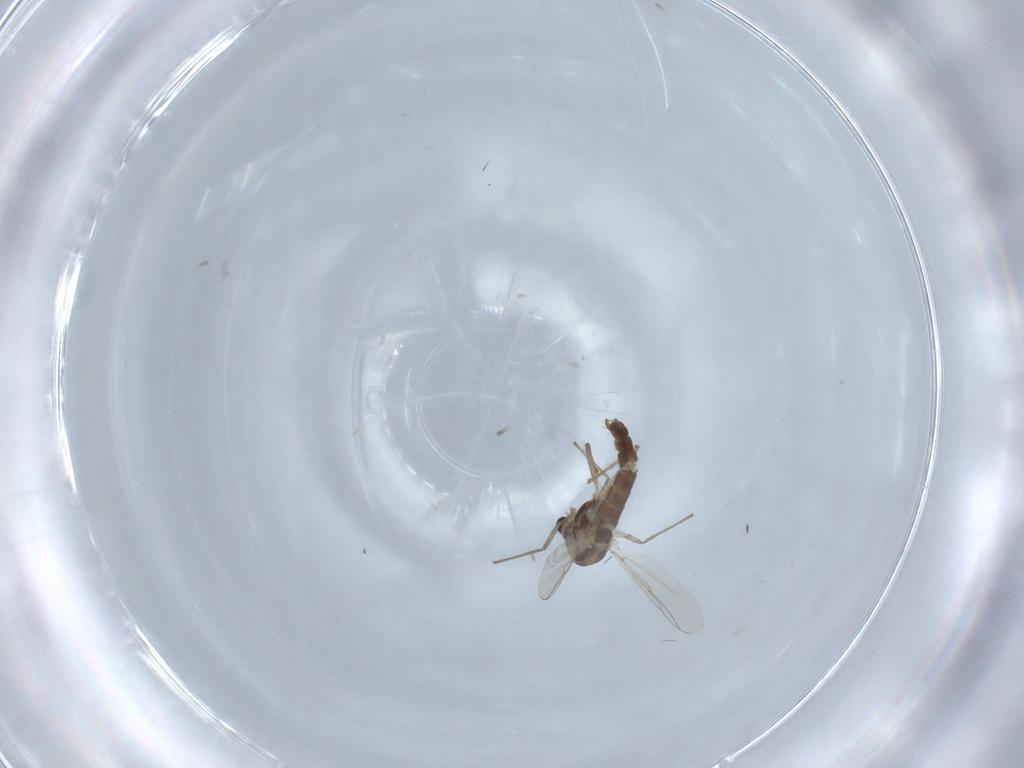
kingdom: Animalia
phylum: Arthropoda
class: Insecta
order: Diptera
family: Chironomidae
